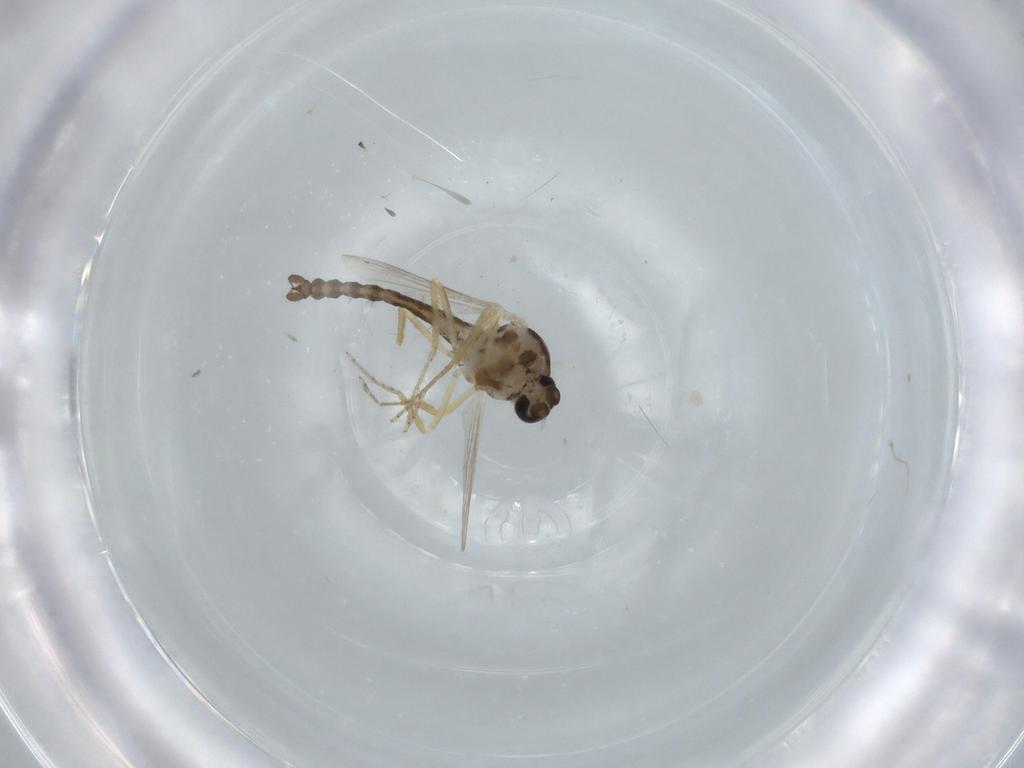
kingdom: Animalia
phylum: Arthropoda
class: Insecta
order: Diptera
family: Ceratopogonidae
